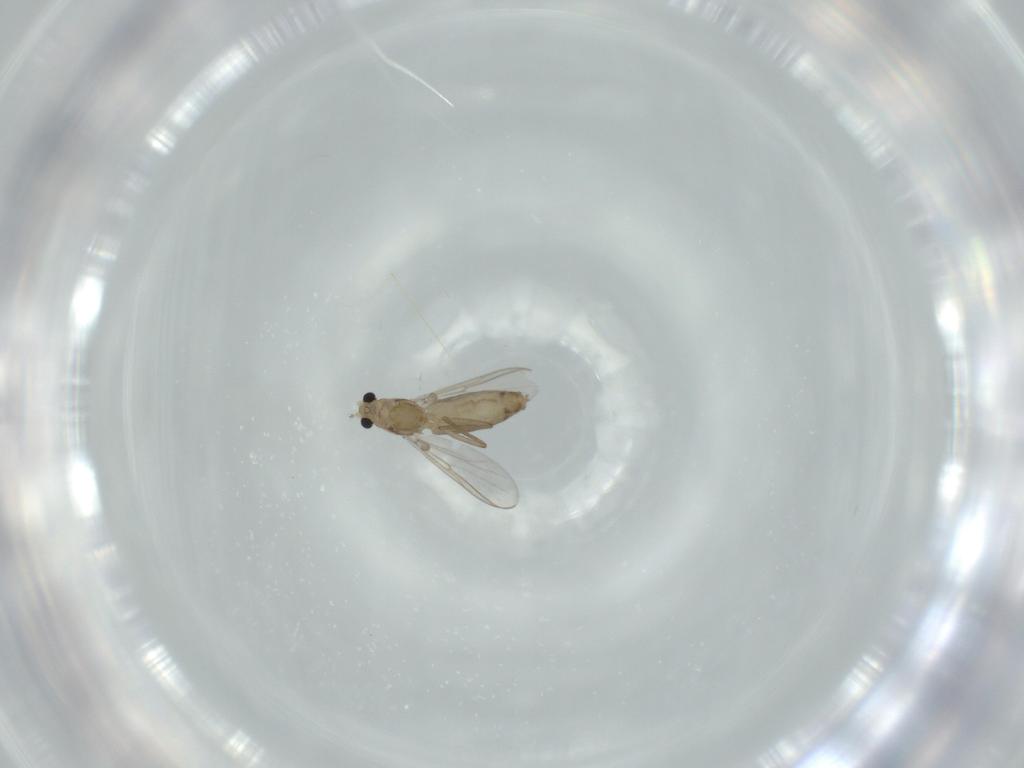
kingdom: Animalia
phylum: Arthropoda
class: Insecta
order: Diptera
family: Chironomidae
